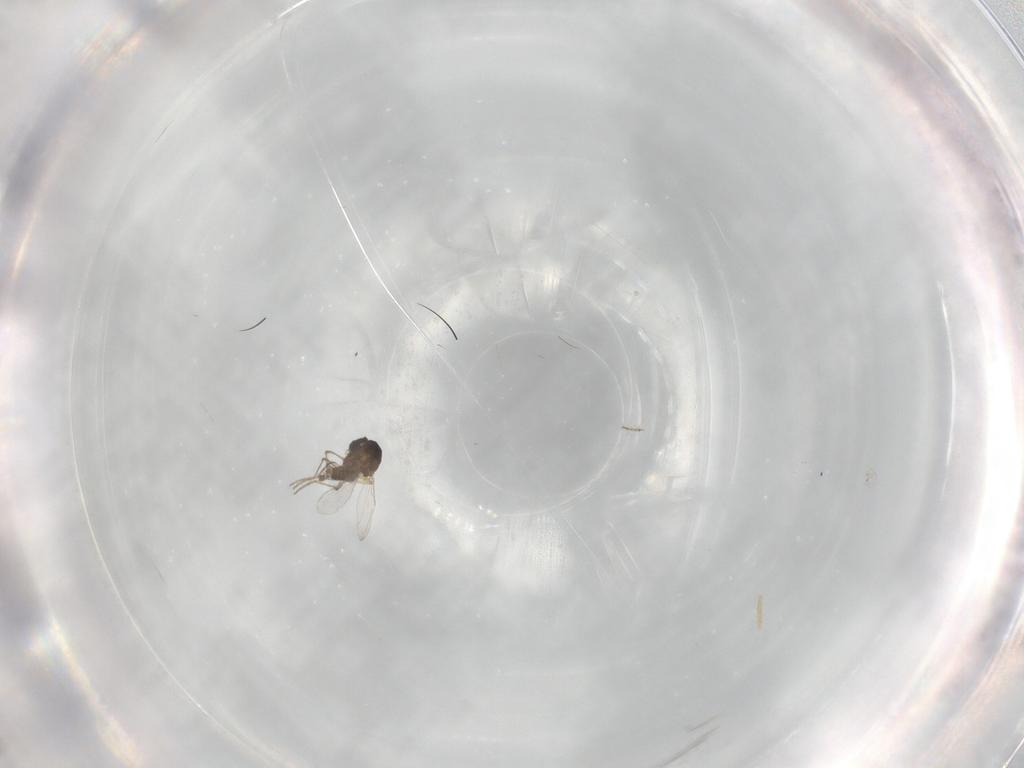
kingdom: Animalia
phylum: Arthropoda
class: Insecta
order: Diptera
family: Ceratopogonidae
